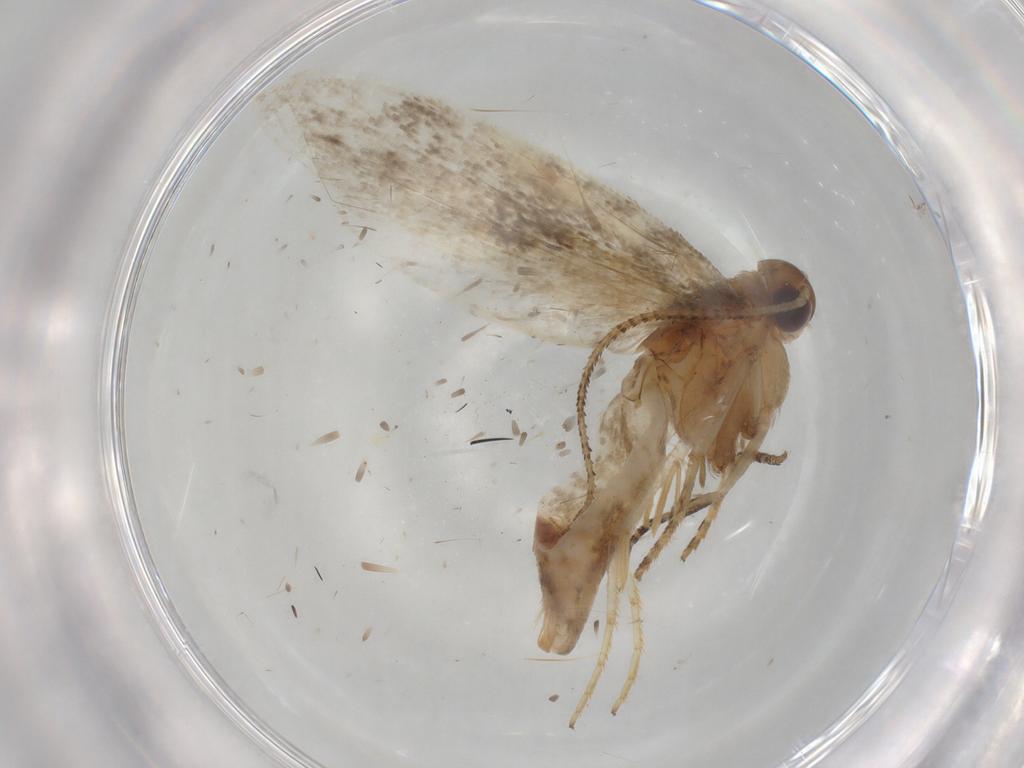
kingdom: Animalia
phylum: Arthropoda
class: Insecta
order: Lepidoptera
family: Gelechiidae
